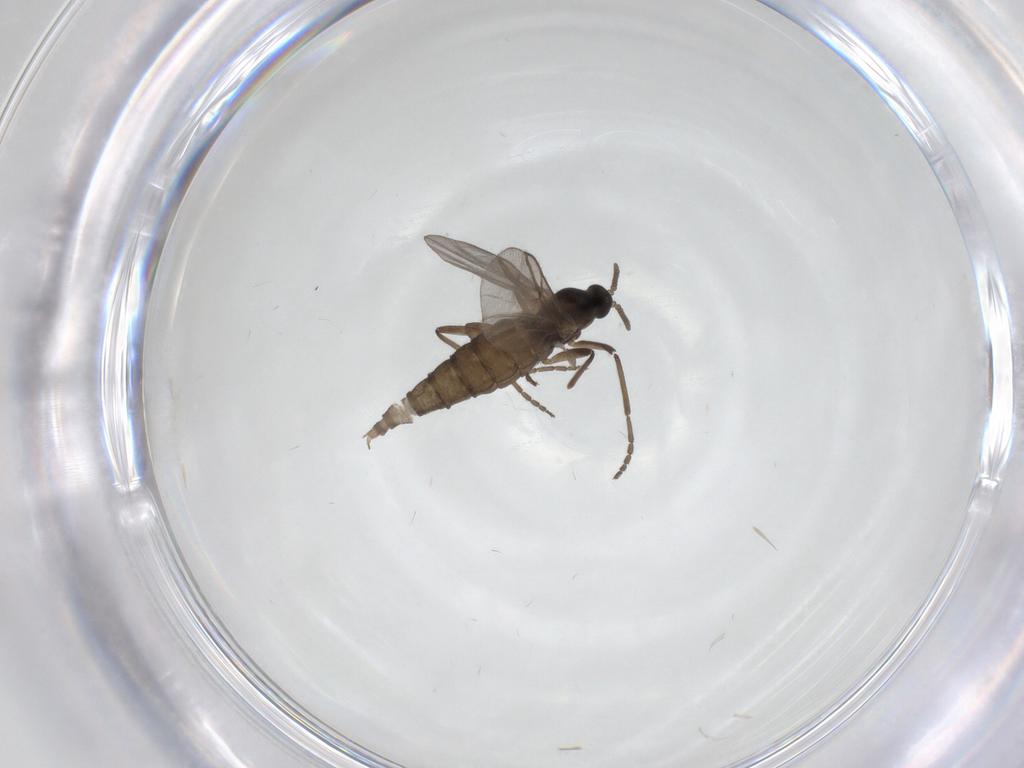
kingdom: Animalia
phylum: Arthropoda
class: Insecta
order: Diptera
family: Cecidomyiidae
